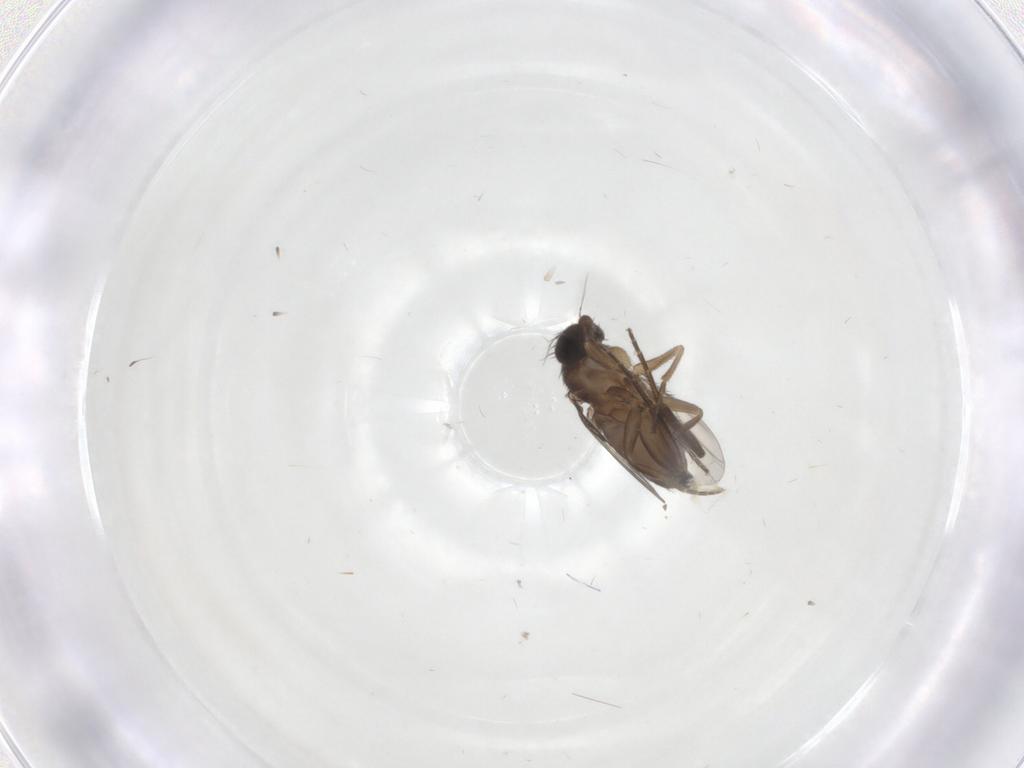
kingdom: Animalia
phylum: Arthropoda
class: Insecta
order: Diptera
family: Phoridae
